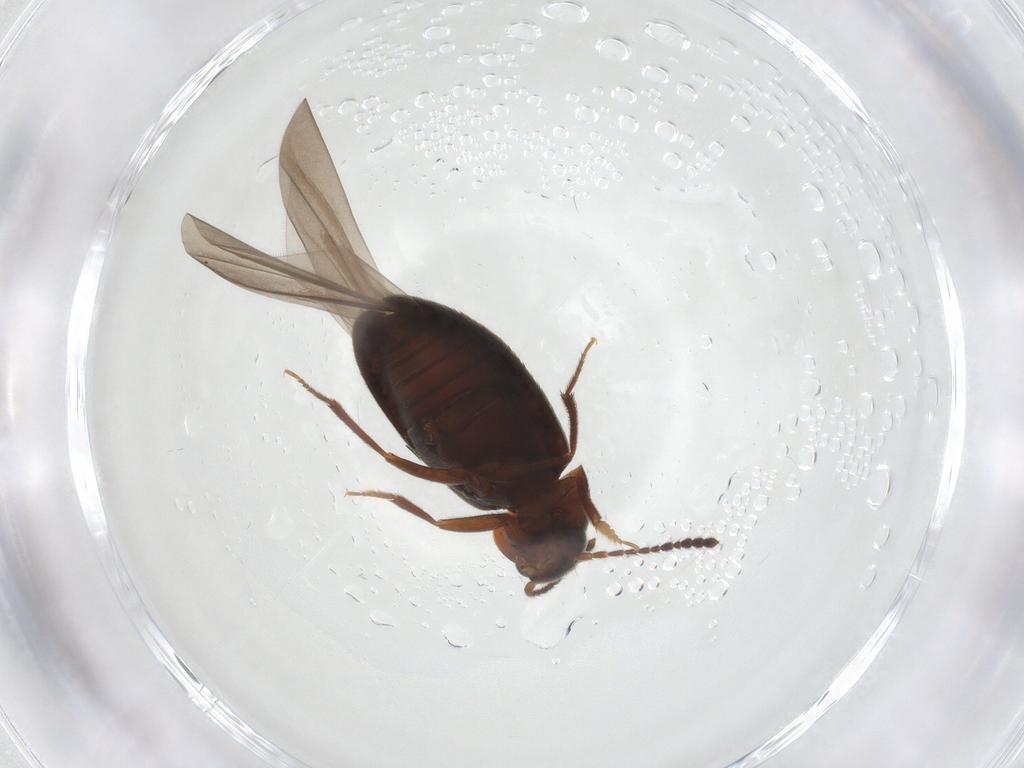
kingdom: Animalia
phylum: Arthropoda
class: Insecta
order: Coleoptera
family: Leiodidae
